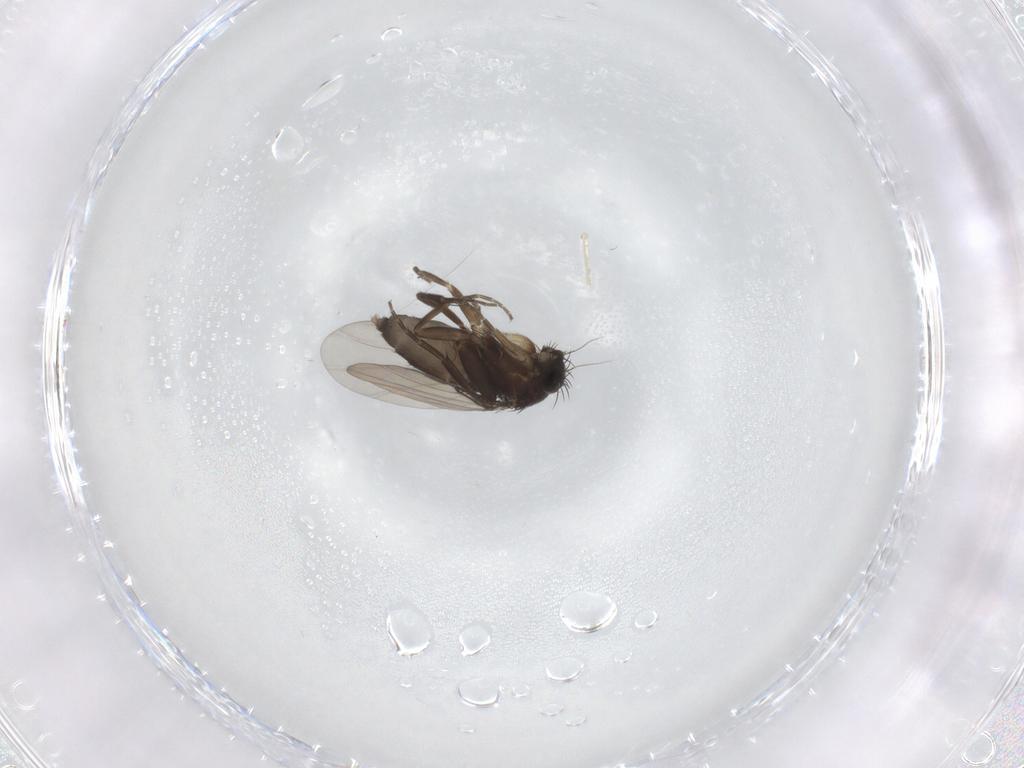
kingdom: Animalia
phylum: Arthropoda
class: Insecta
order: Diptera
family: Phoridae
